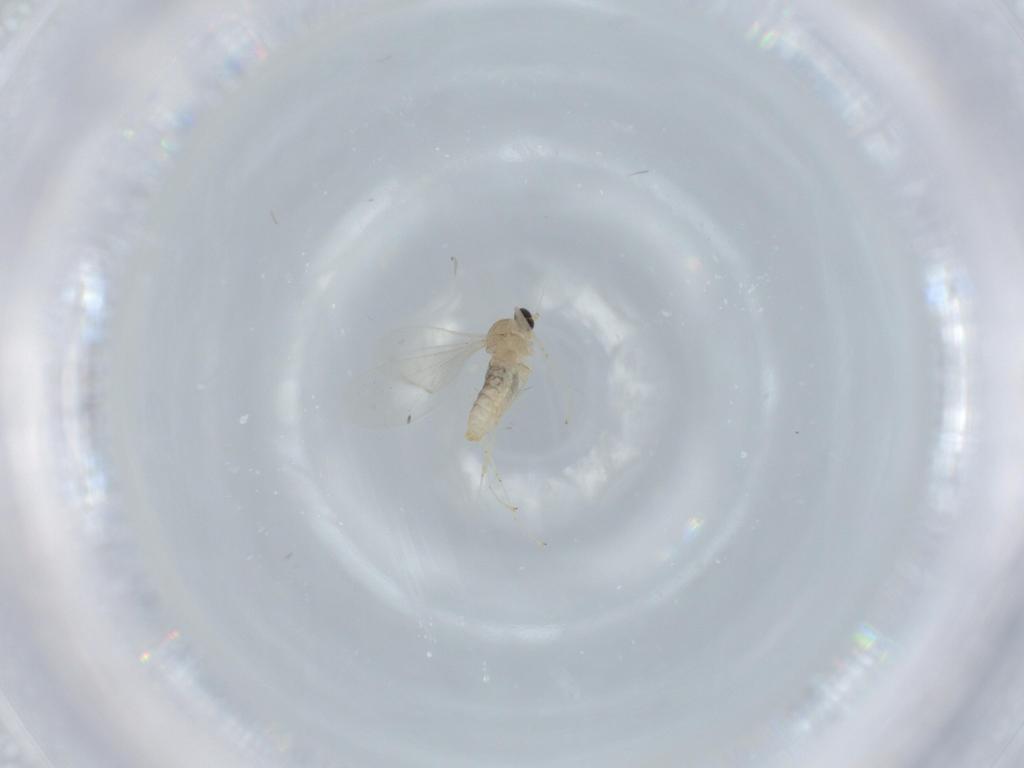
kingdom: Animalia
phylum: Arthropoda
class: Insecta
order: Diptera
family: Cecidomyiidae
